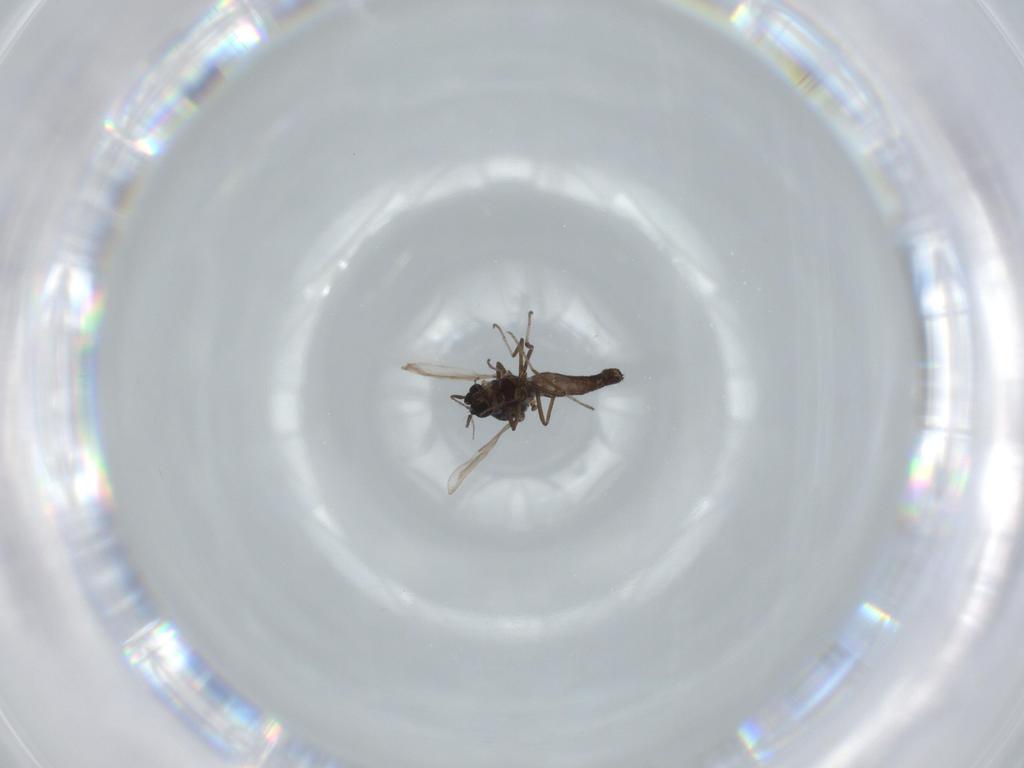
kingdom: Animalia
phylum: Arthropoda
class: Insecta
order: Diptera
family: Ceratopogonidae
